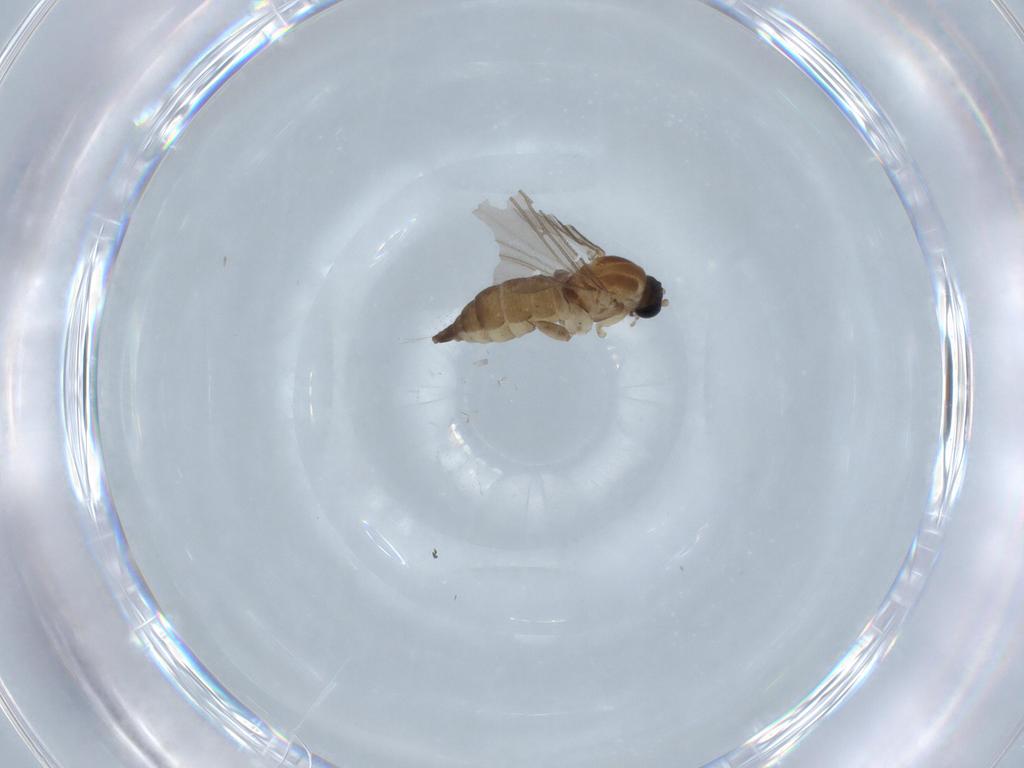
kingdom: Animalia
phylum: Arthropoda
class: Insecta
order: Diptera
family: Sciaridae
